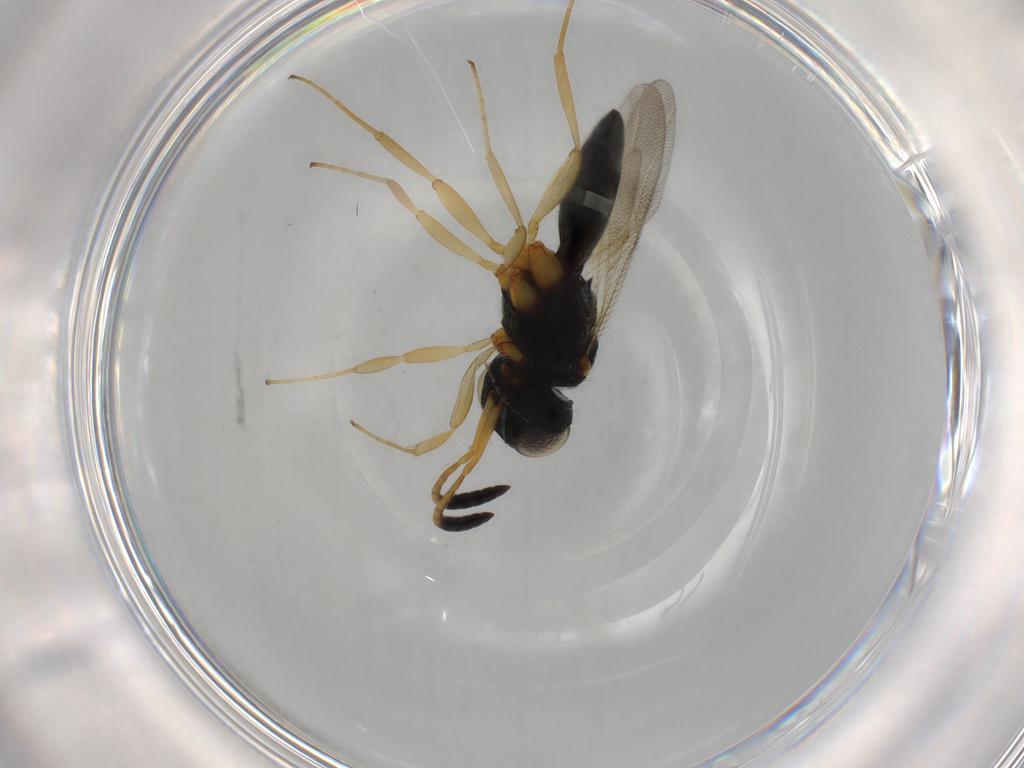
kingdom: Animalia
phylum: Arthropoda
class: Insecta
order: Hymenoptera
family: Scelionidae
